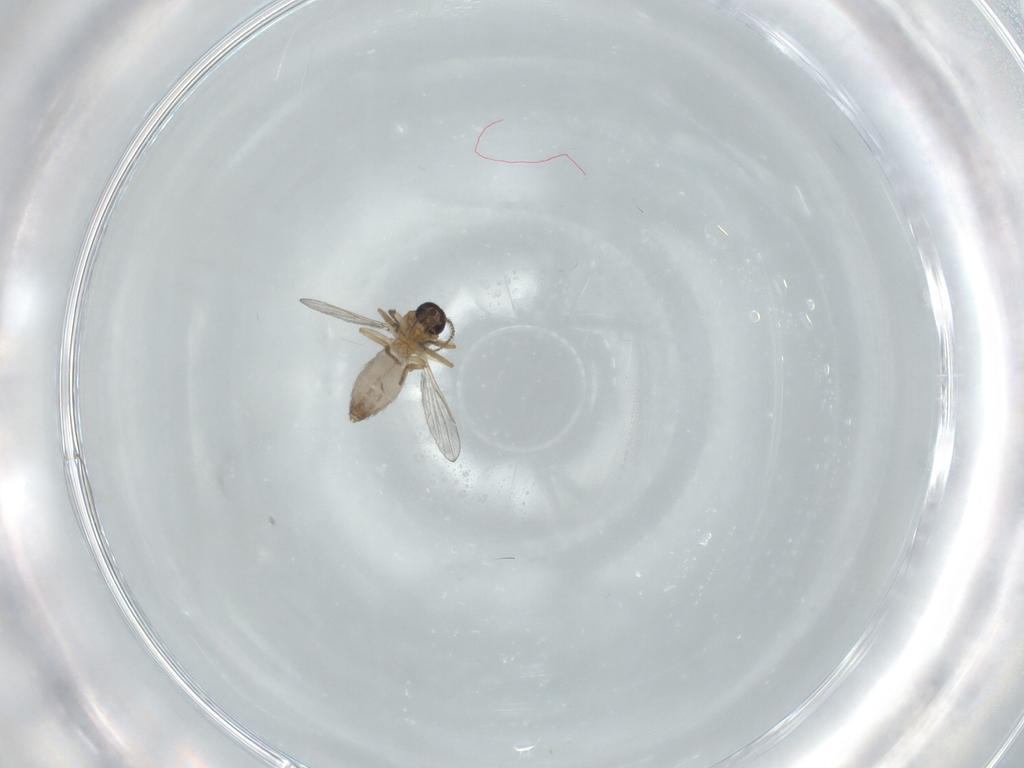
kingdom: Animalia
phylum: Arthropoda
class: Insecta
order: Diptera
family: Ceratopogonidae
